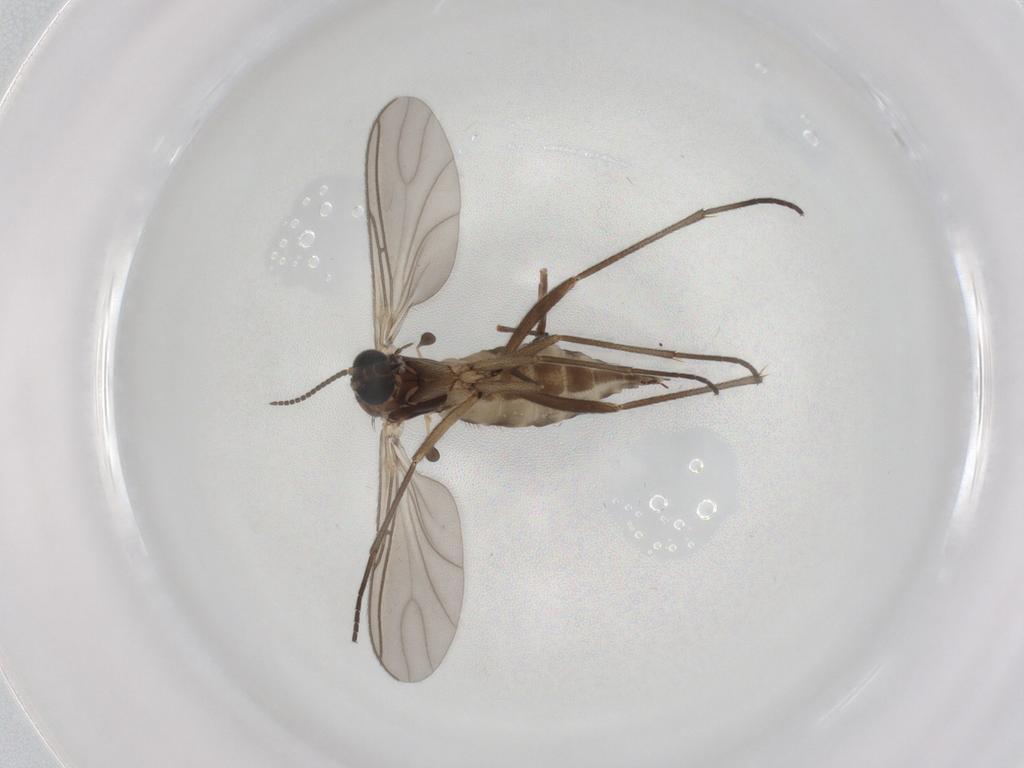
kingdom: Animalia
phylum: Arthropoda
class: Insecta
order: Diptera
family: Sciaridae
